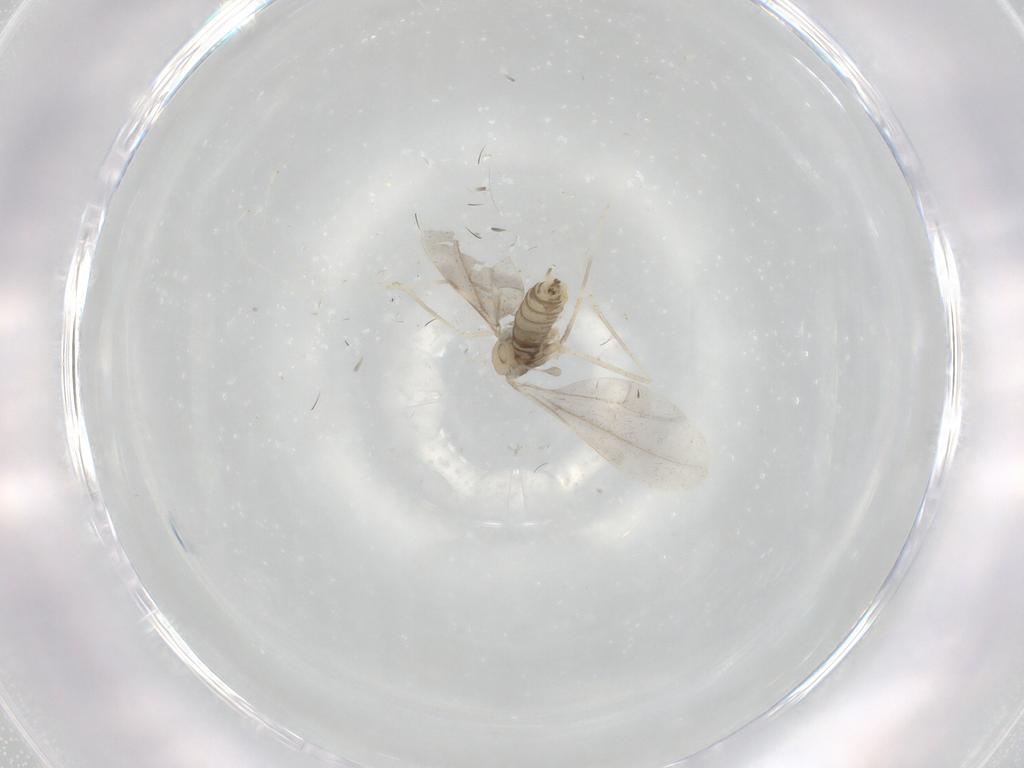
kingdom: Animalia
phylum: Arthropoda
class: Insecta
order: Diptera
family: Cecidomyiidae
